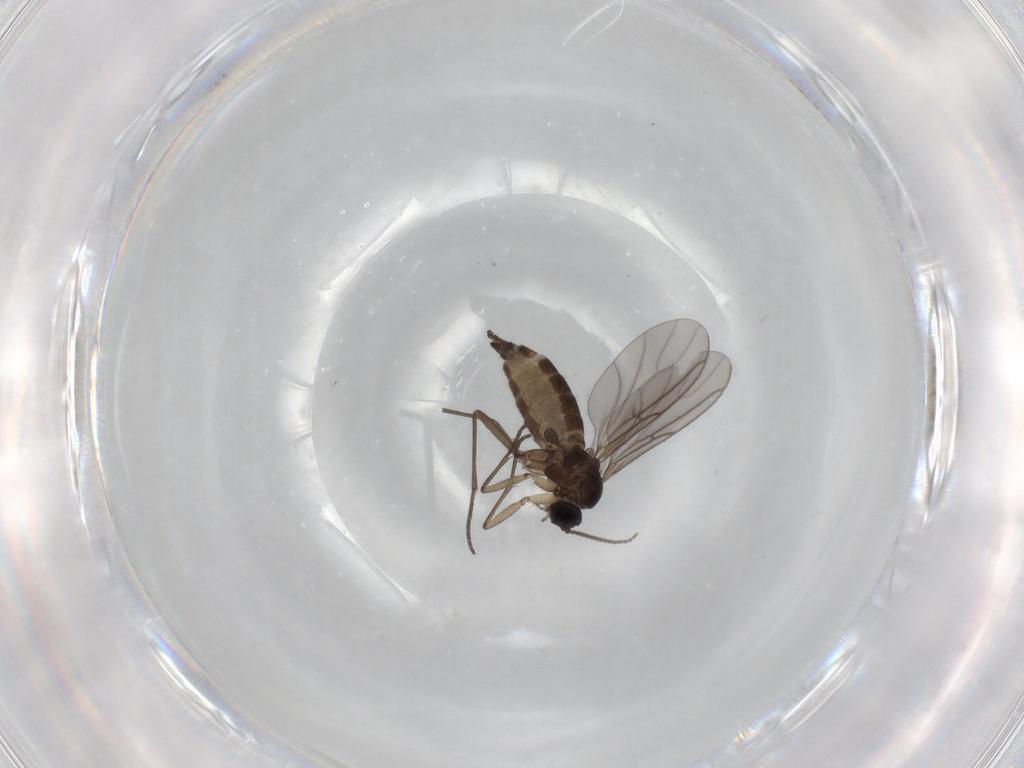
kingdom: Animalia
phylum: Arthropoda
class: Insecta
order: Diptera
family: Sciaridae
